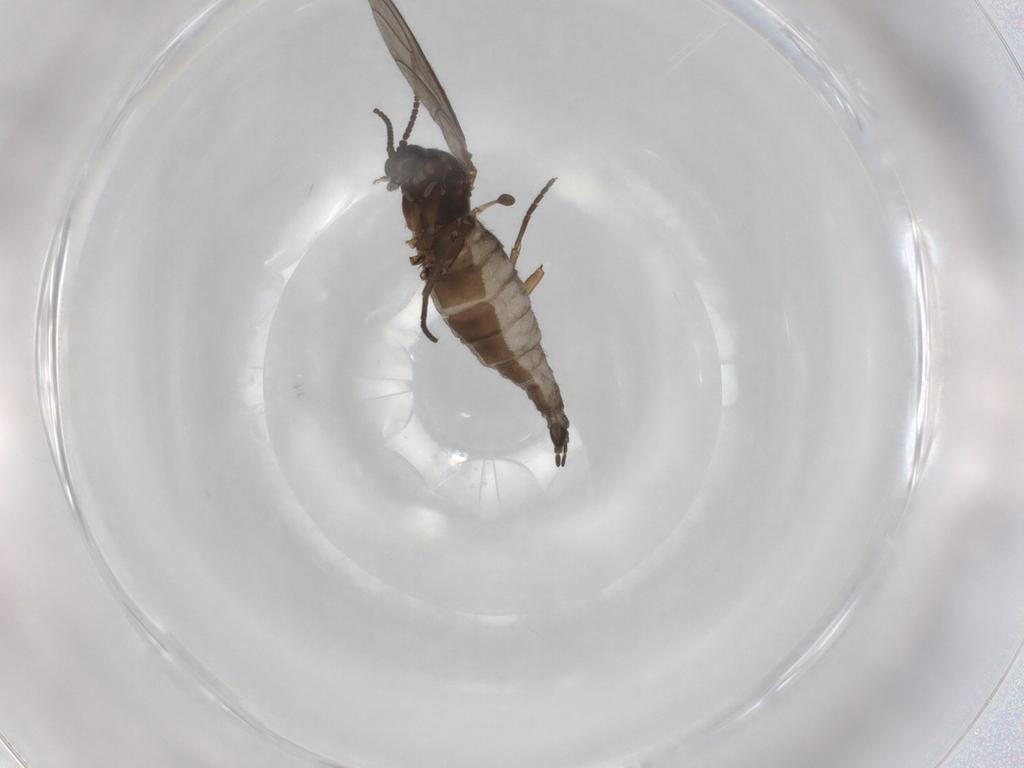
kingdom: Animalia
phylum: Arthropoda
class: Insecta
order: Diptera
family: Sciaridae
